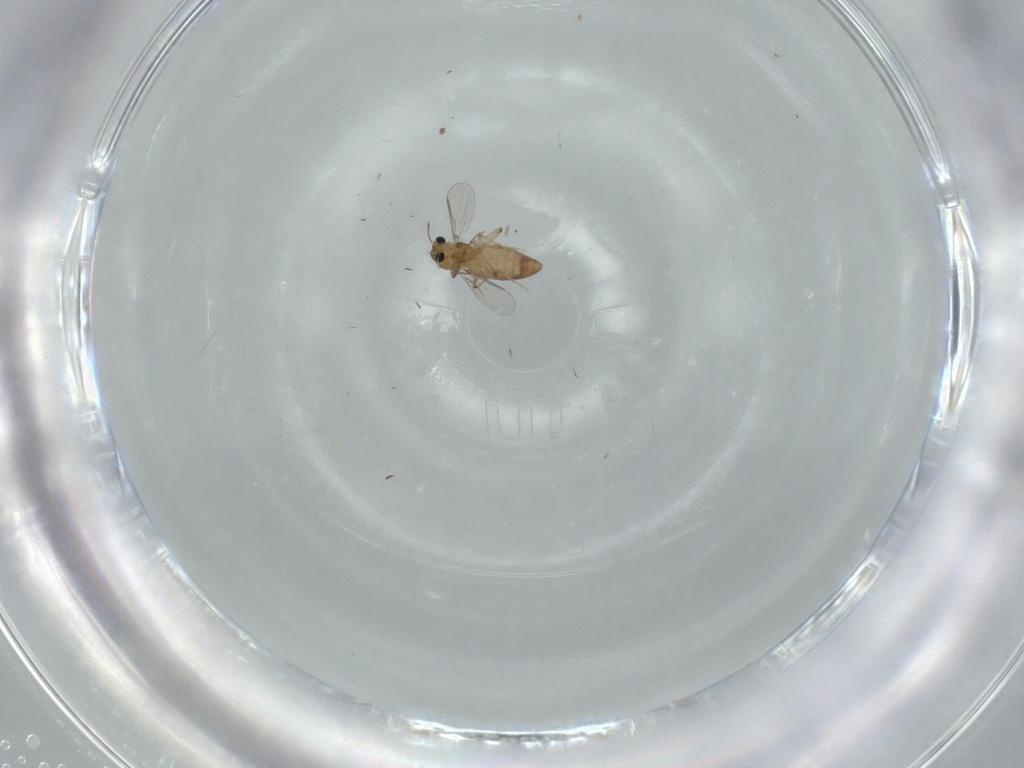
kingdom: Animalia
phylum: Arthropoda
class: Insecta
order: Diptera
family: Chironomidae
